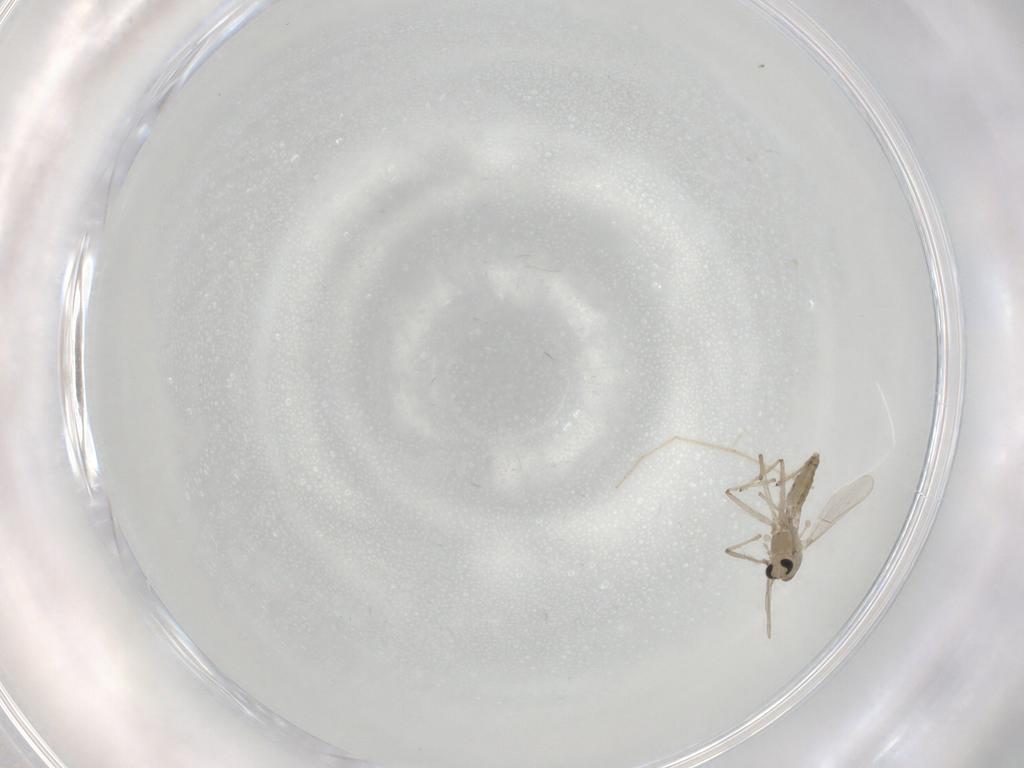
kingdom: Animalia
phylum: Arthropoda
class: Insecta
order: Diptera
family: Chironomidae
